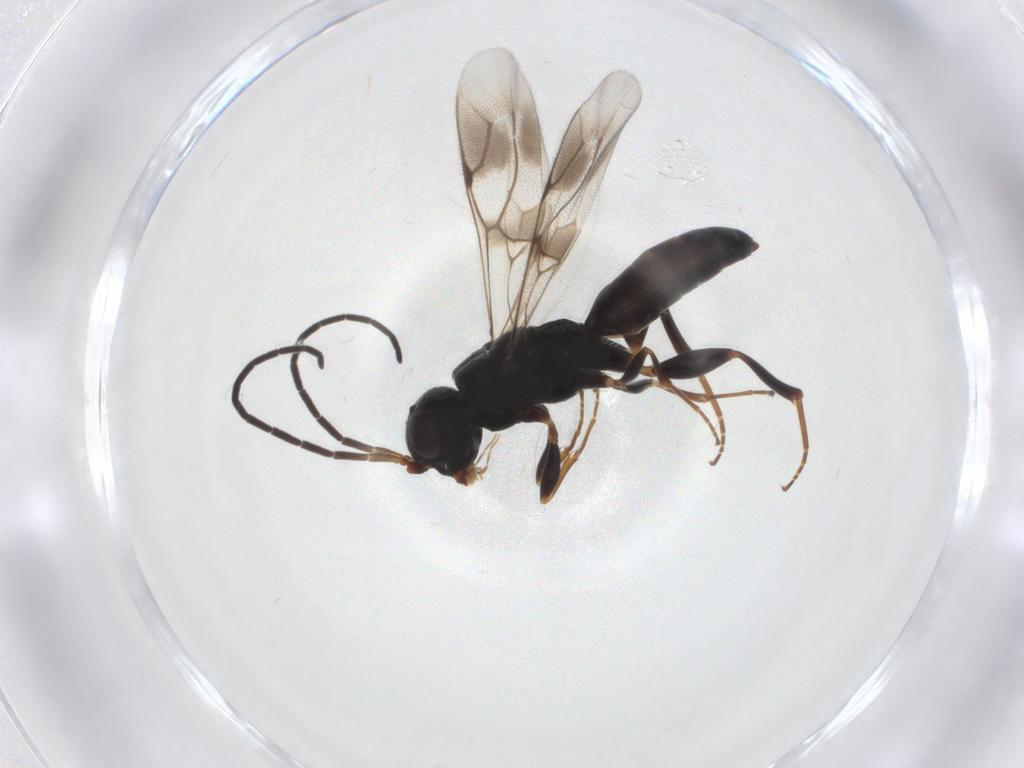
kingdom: Animalia
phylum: Arthropoda
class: Insecta
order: Hymenoptera
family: Mymaridae
